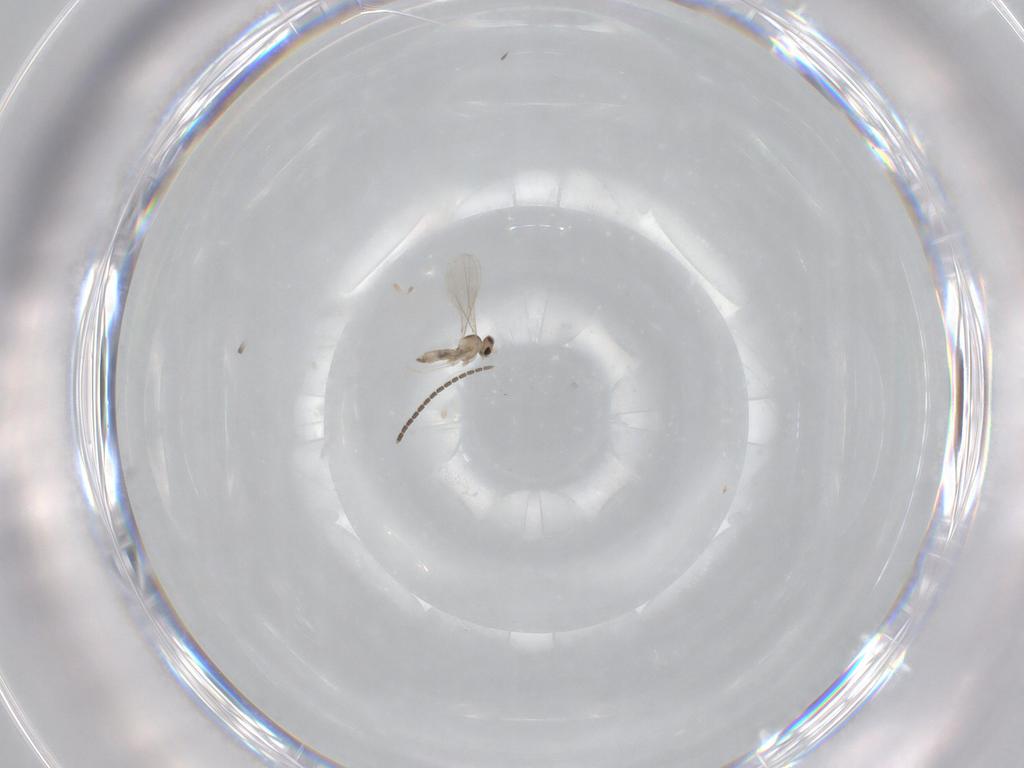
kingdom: Animalia
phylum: Arthropoda
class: Insecta
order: Diptera
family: Cecidomyiidae
